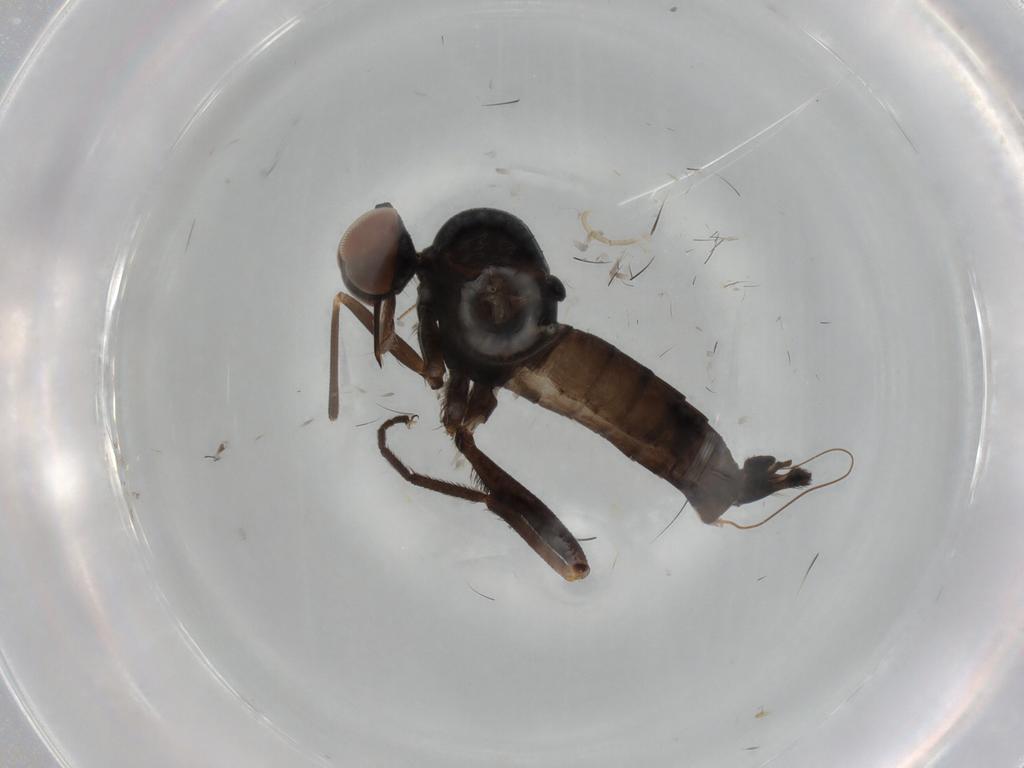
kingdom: Animalia
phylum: Arthropoda
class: Insecta
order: Diptera
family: Empididae
